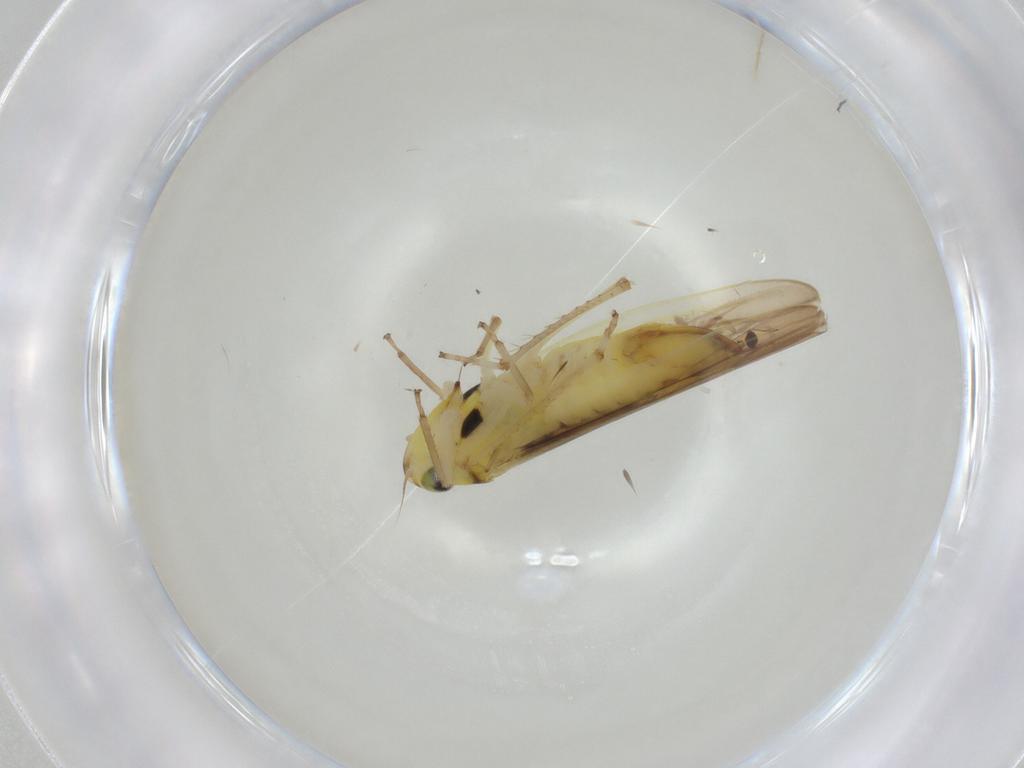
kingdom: Animalia
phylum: Arthropoda
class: Insecta
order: Hemiptera
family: Cicadellidae
